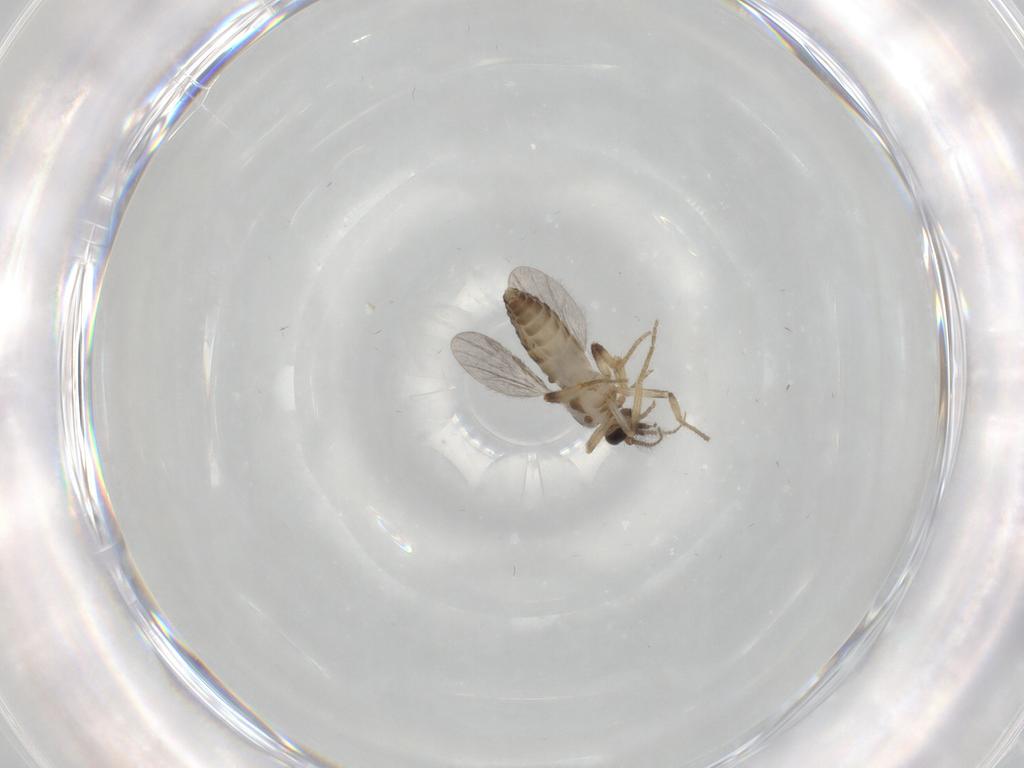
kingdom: Animalia
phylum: Arthropoda
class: Insecta
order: Diptera
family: Ceratopogonidae
